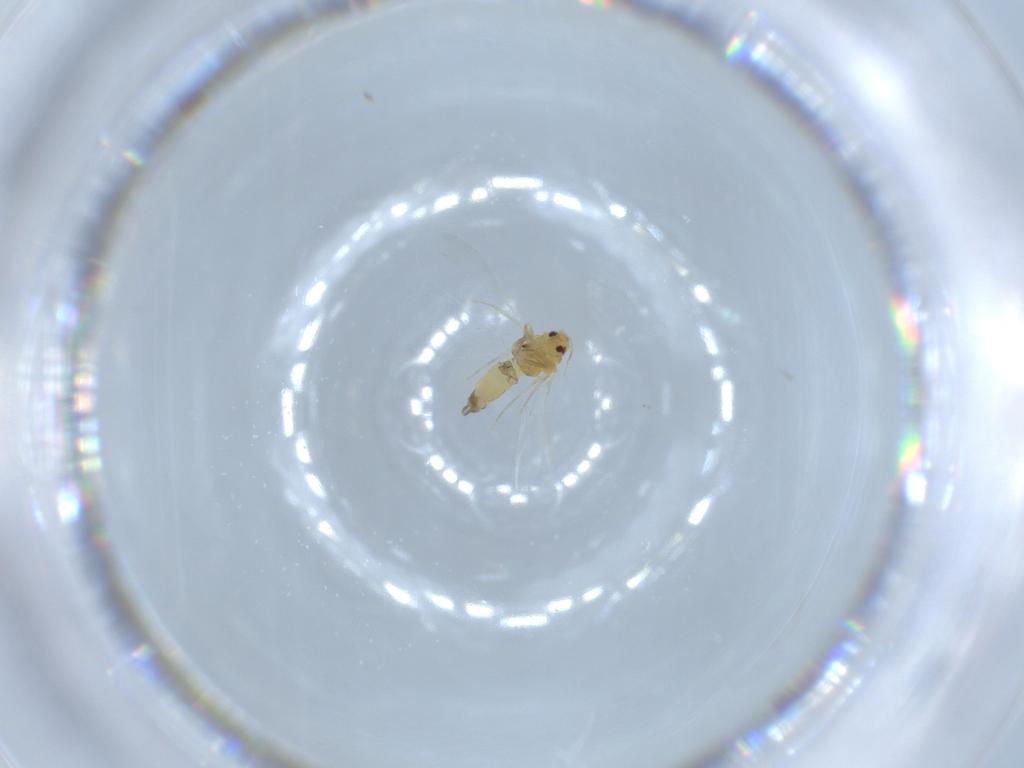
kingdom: Animalia
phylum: Arthropoda
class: Insecta
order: Hemiptera
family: Aleyrodidae
